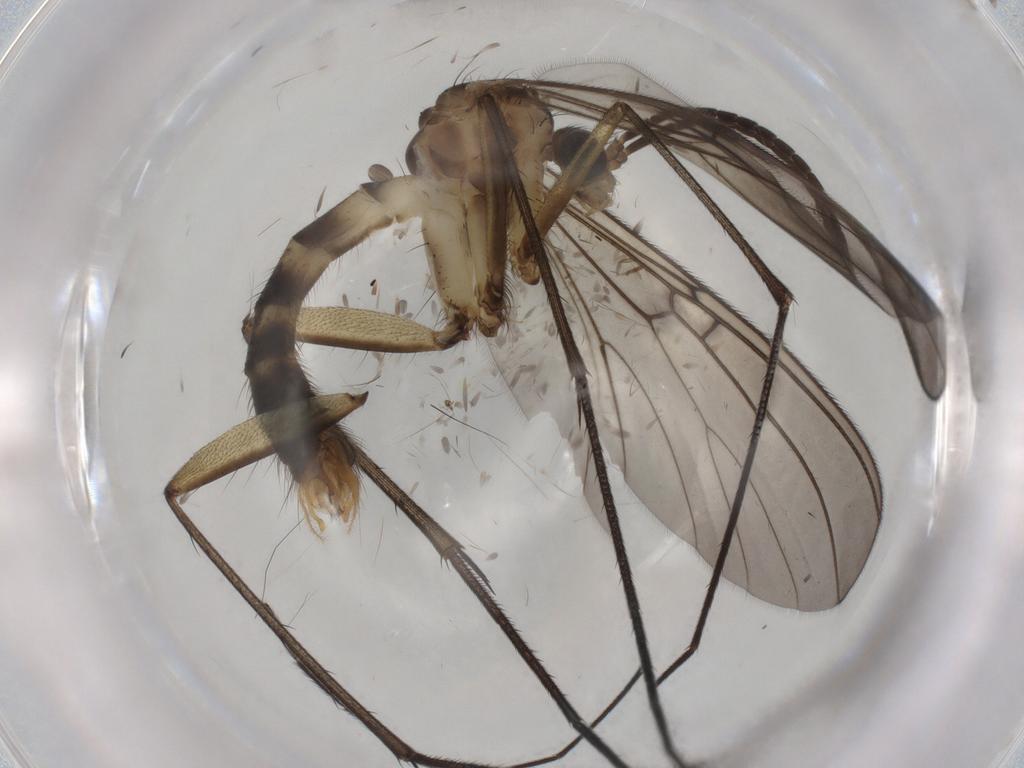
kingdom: Animalia
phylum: Arthropoda
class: Insecta
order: Diptera
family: Mycetophilidae
